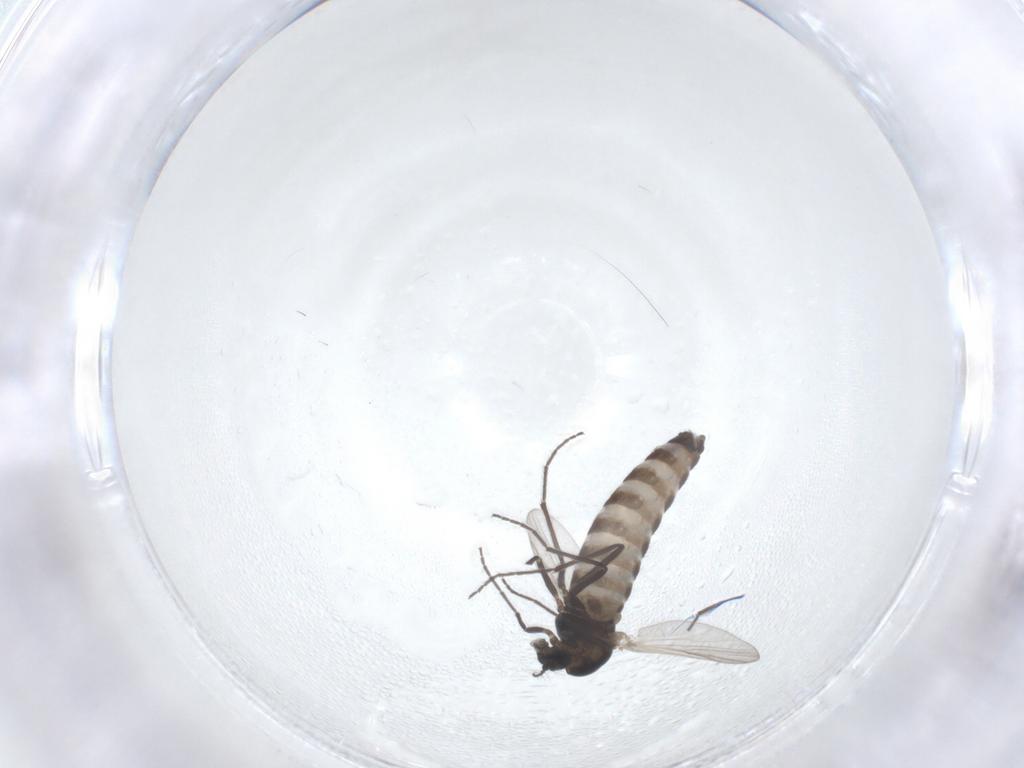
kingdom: Animalia
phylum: Arthropoda
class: Insecta
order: Diptera
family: Chironomidae
